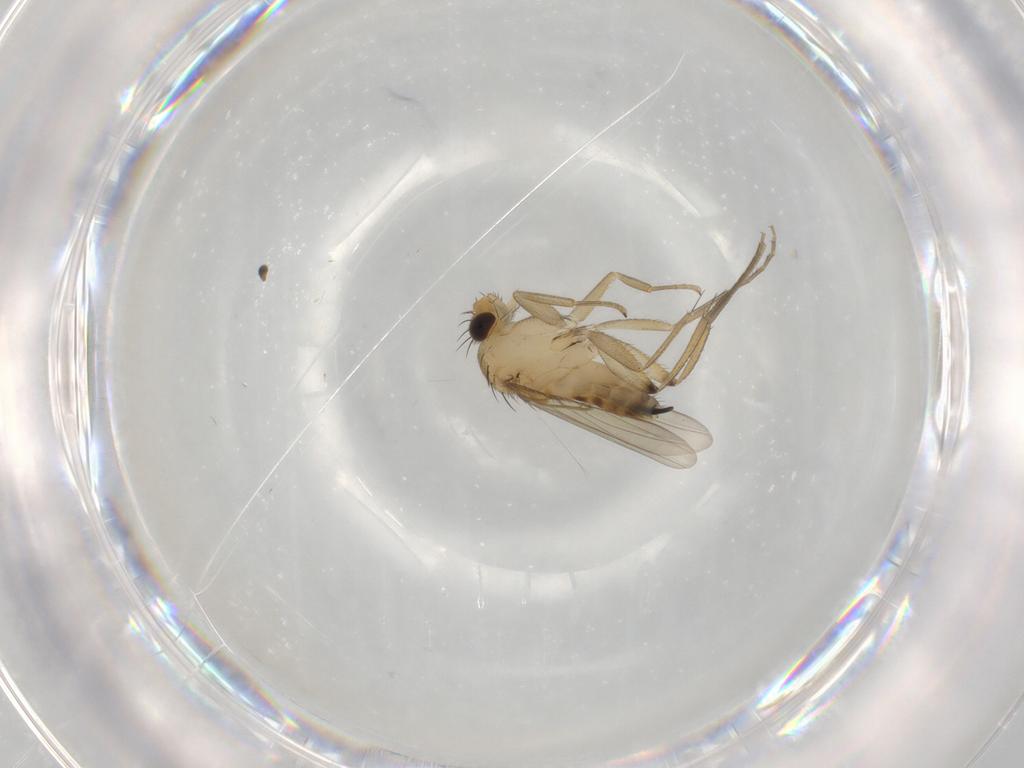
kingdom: Animalia
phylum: Arthropoda
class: Insecta
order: Diptera
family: Phoridae
